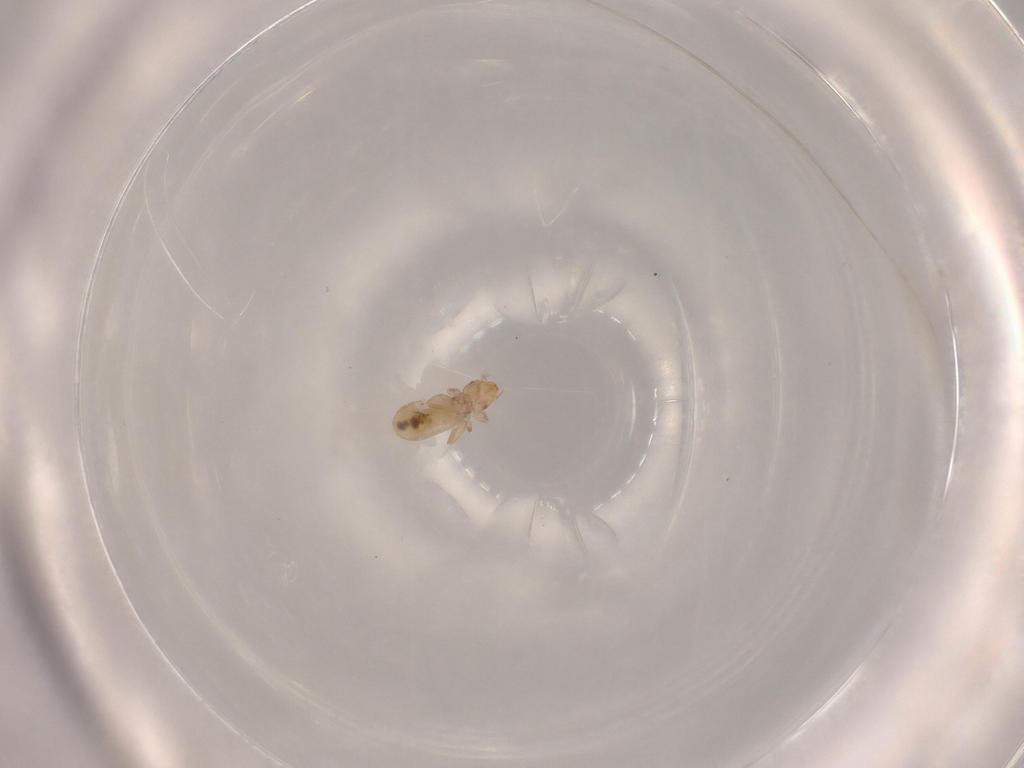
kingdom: Animalia
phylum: Arthropoda
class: Insecta
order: Psocodea
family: Liposcelididae
